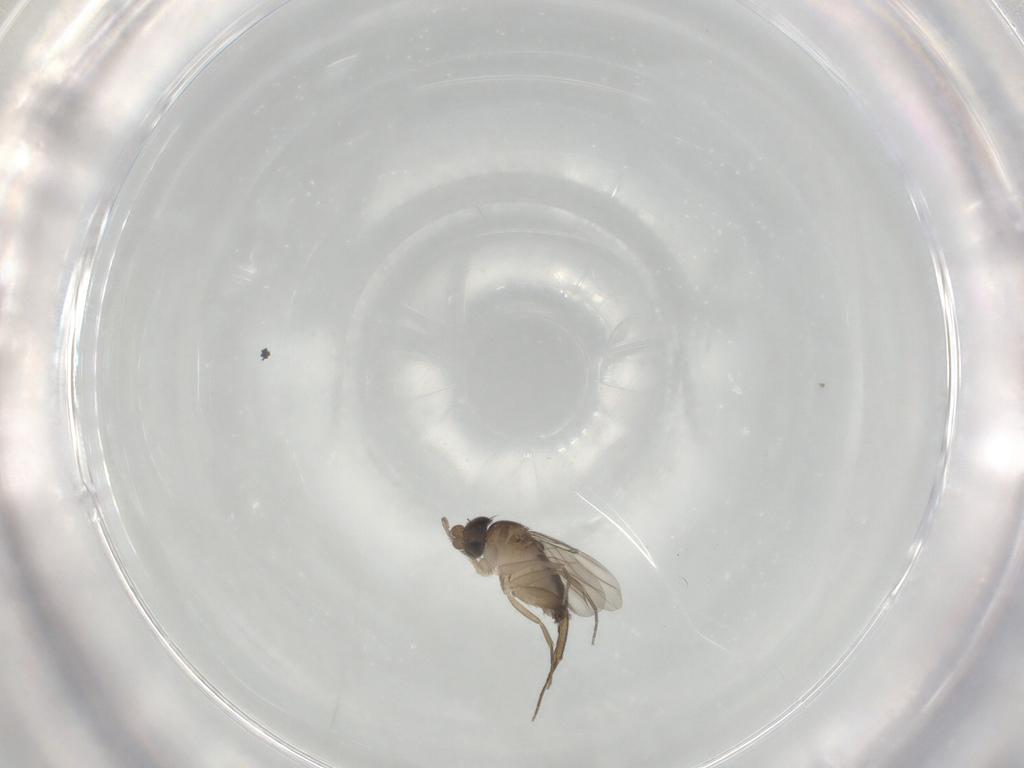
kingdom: Animalia
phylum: Arthropoda
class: Insecta
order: Diptera
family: Phoridae
